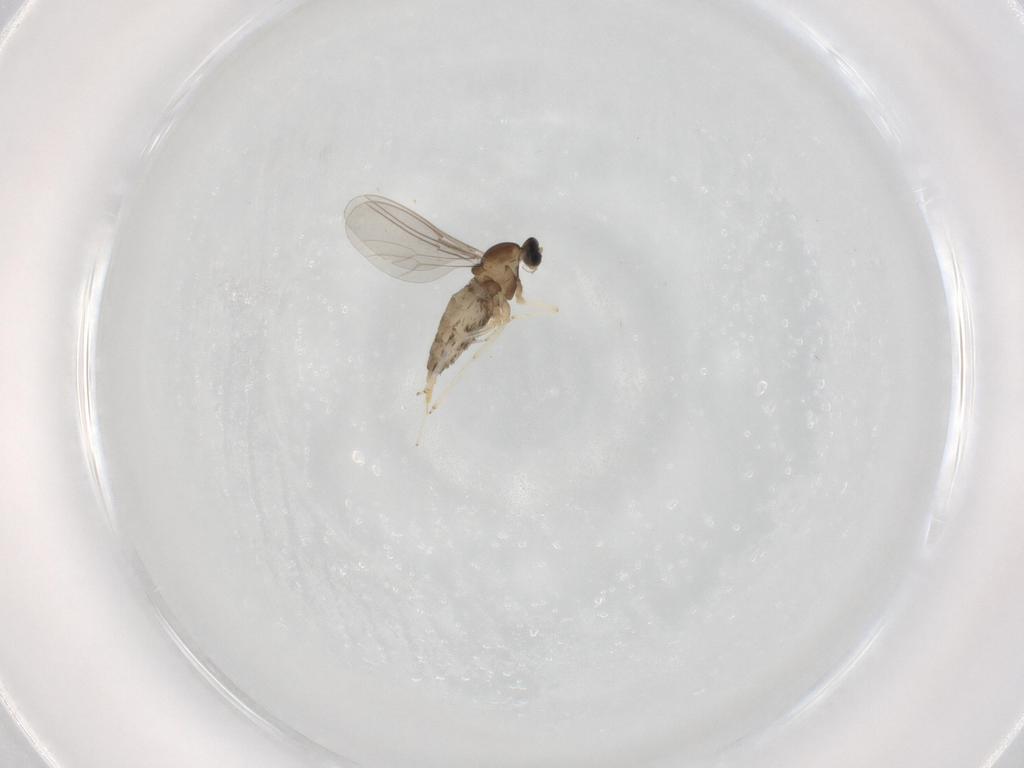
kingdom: Animalia
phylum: Arthropoda
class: Insecta
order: Diptera
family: Cecidomyiidae
